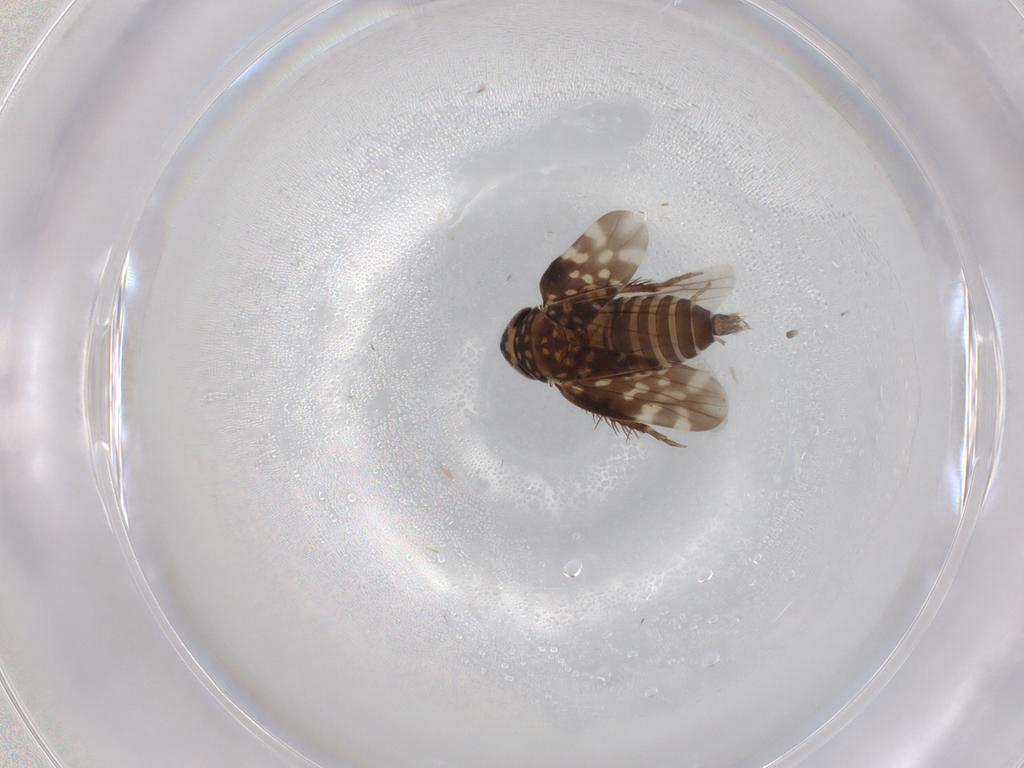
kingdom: Animalia
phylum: Arthropoda
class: Insecta
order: Hemiptera
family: Cicadellidae
